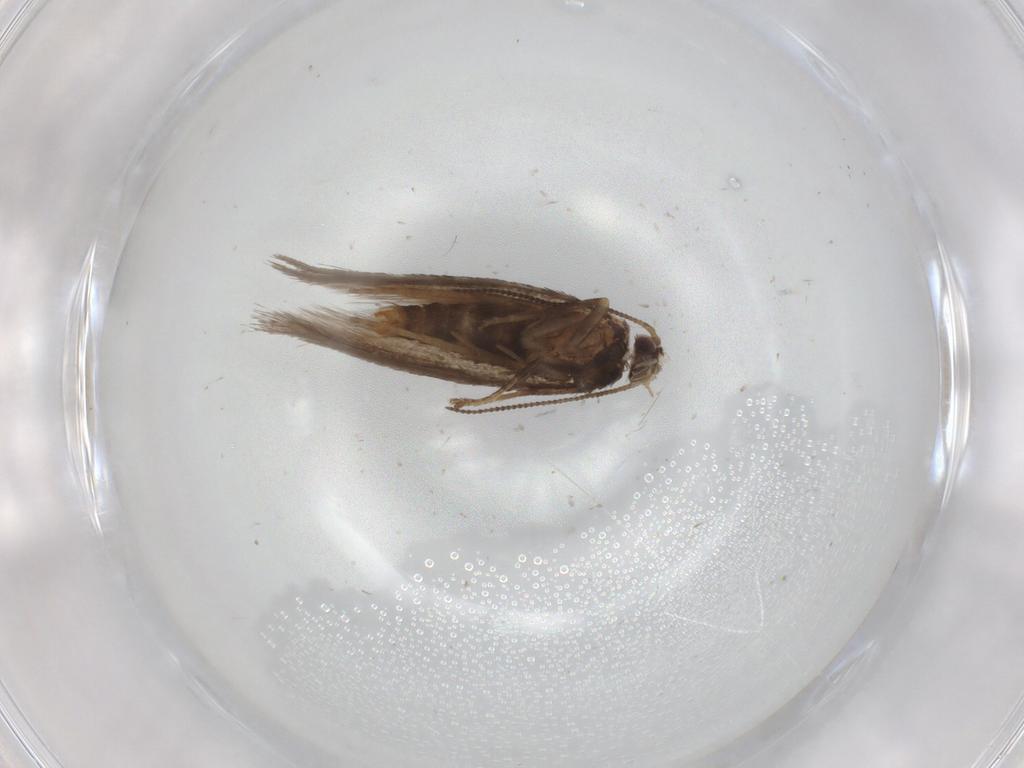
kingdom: Animalia
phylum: Arthropoda
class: Insecta
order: Lepidoptera
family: Nepticulidae
